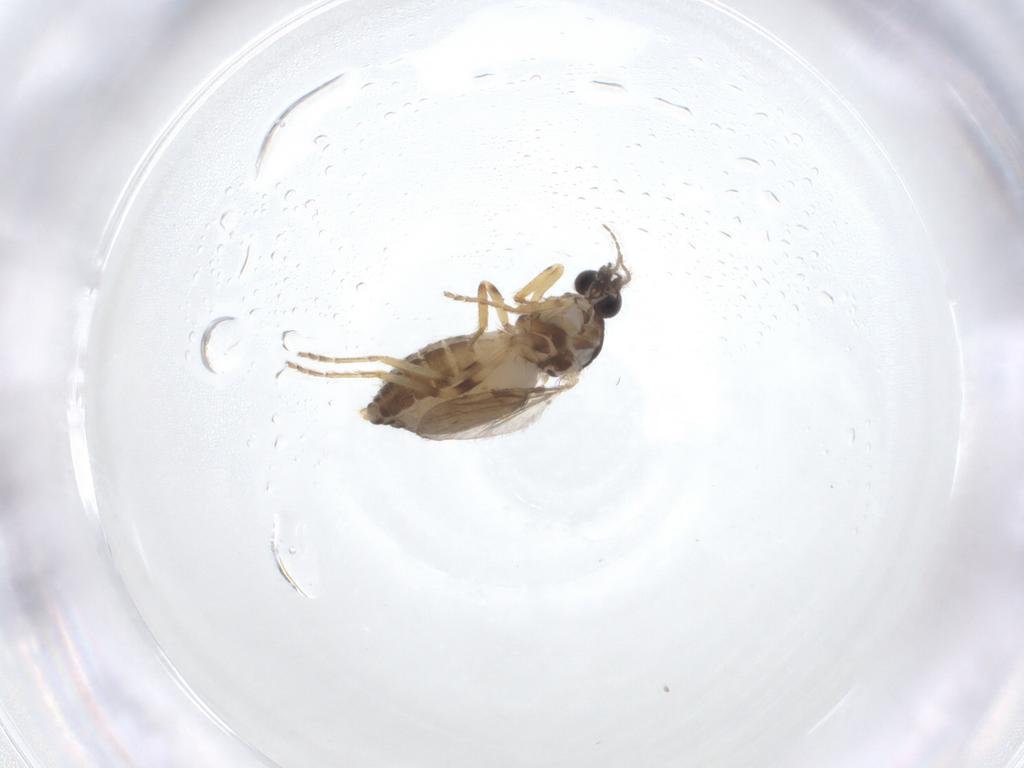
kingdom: Animalia
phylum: Arthropoda
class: Insecta
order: Diptera
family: Ceratopogonidae
